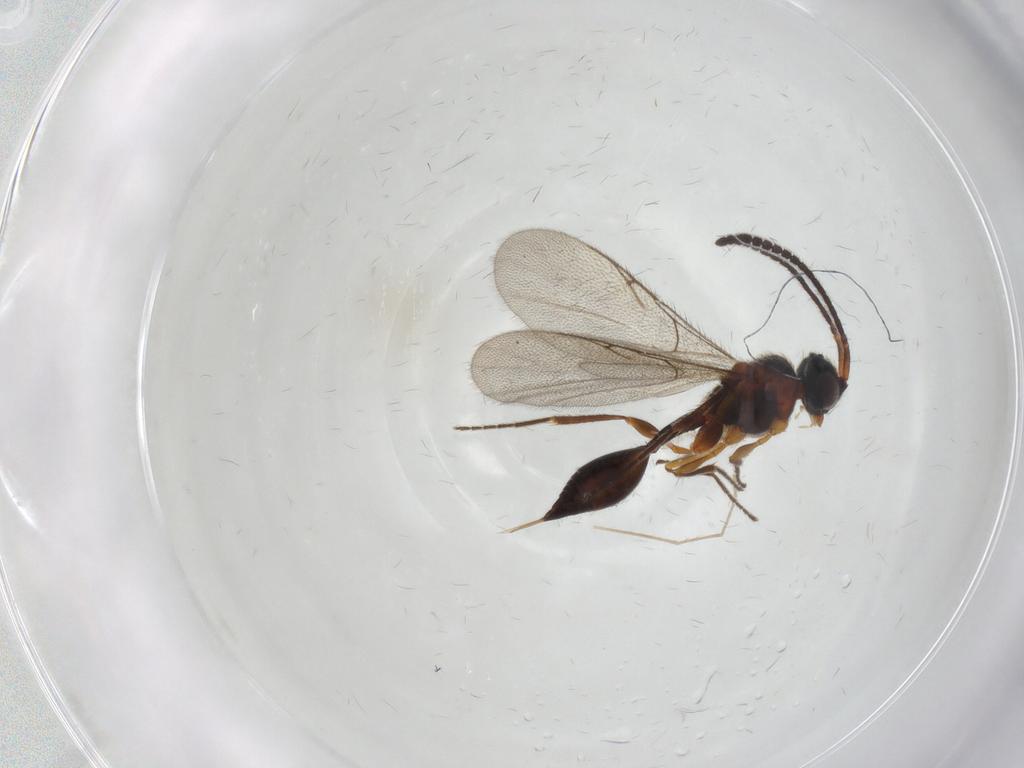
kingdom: Animalia
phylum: Arthropoda
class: Insecta
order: Hymenoptera
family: Diapriidae
